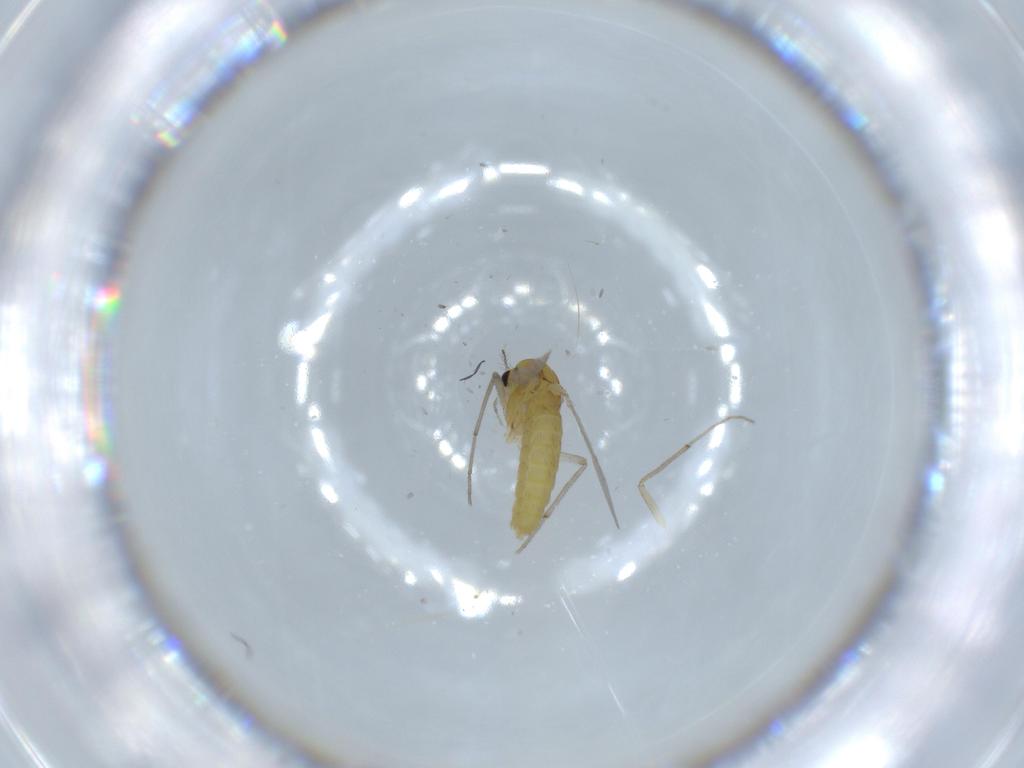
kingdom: Animalia
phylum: Arthropoda
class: Insecta
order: Diptera
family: Chironomidae
